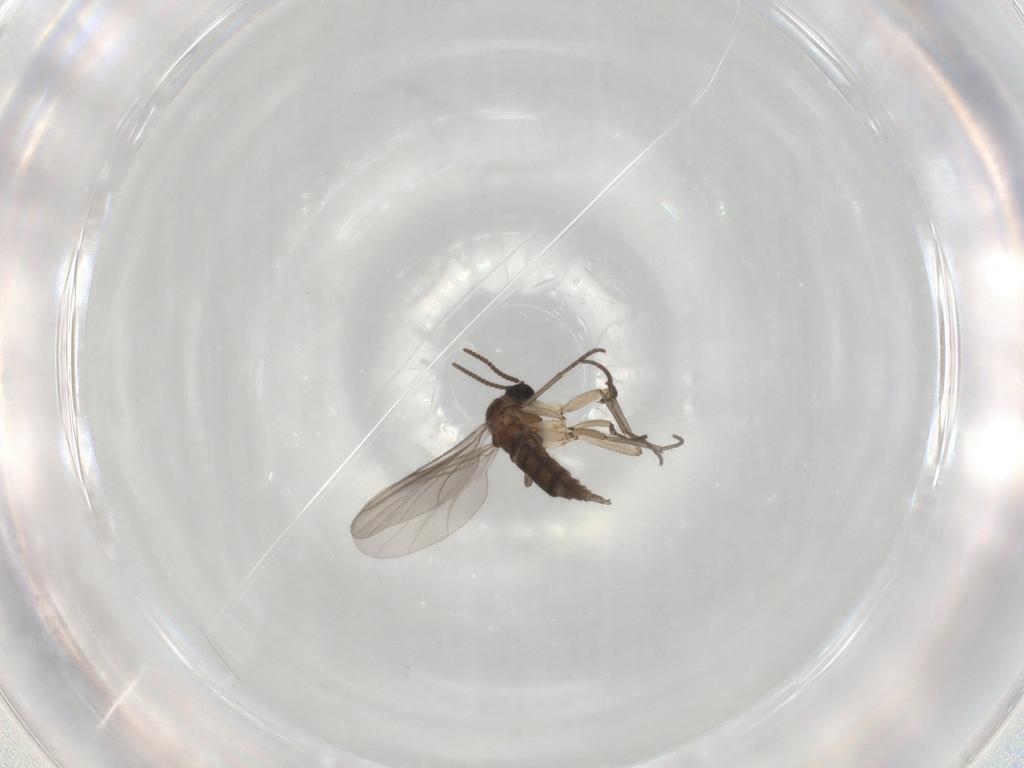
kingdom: Animalia
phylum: Arthropoda
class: Insecta
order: Diptera
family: Sciaridae
